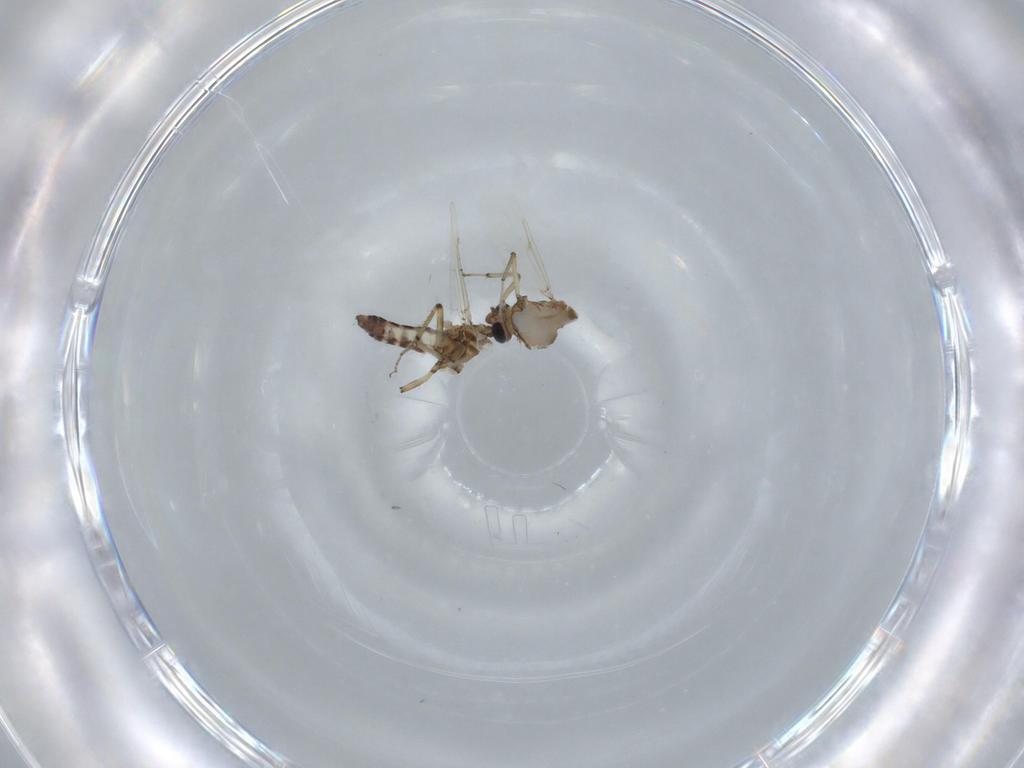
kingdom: Animalia
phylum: Arthropoda
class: Insecta
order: Diptera
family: Ceratopogonidae
